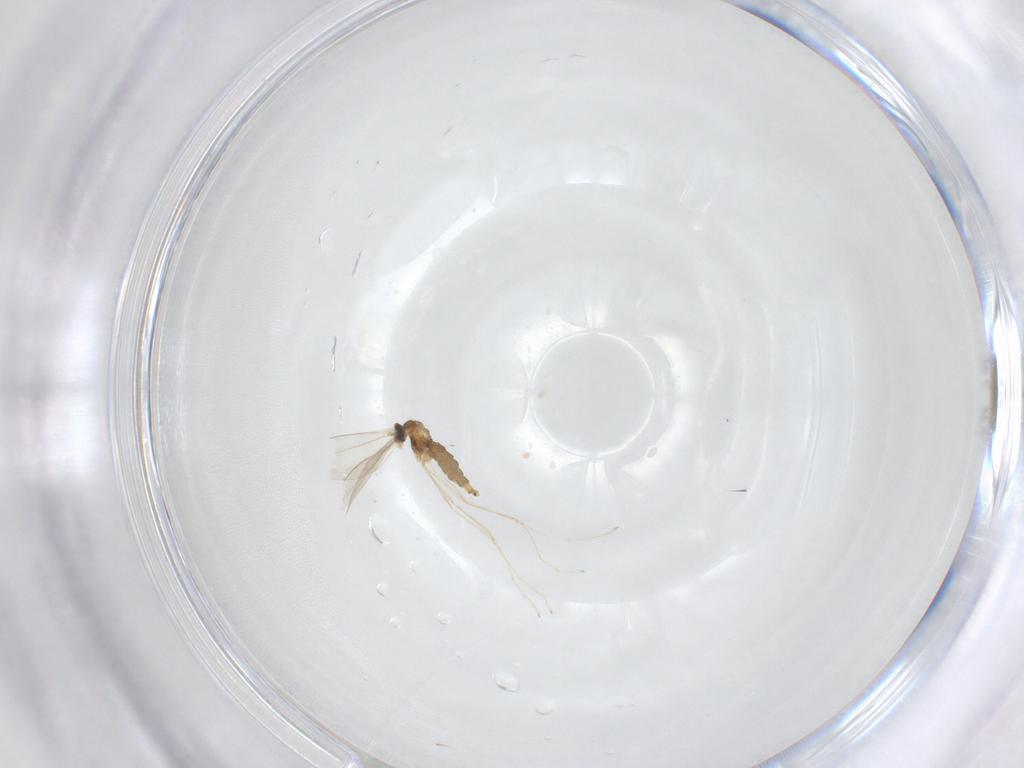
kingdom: Animalia
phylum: Arthropoda
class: Insecta
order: Diptera
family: Cecidomyiidae
